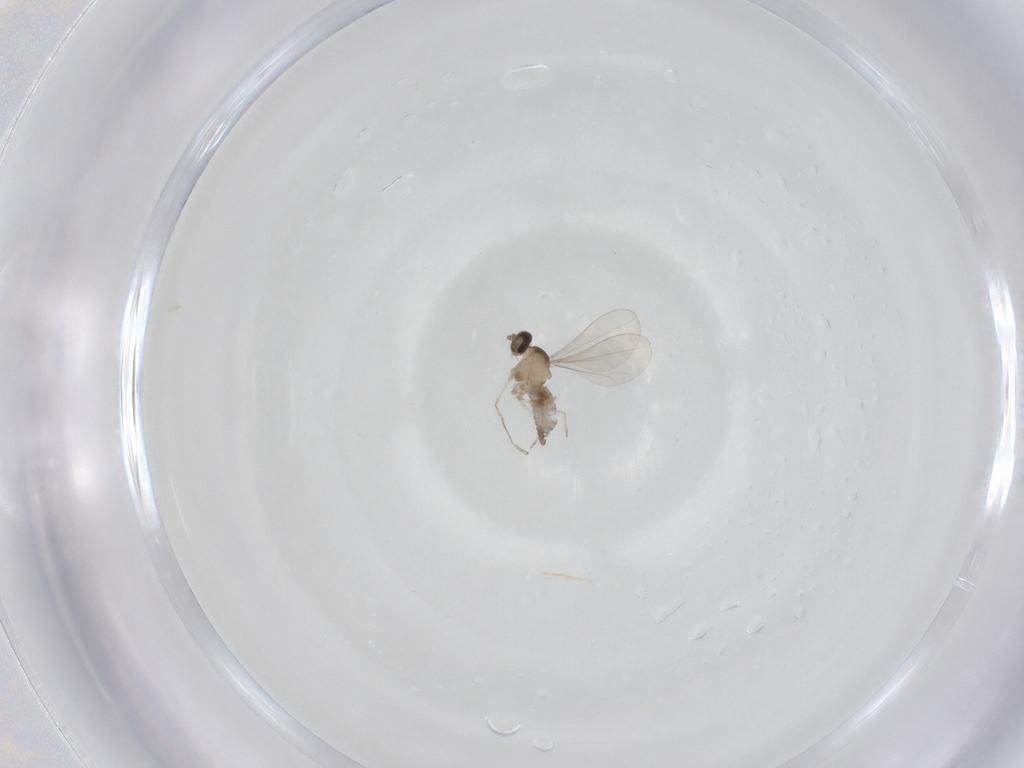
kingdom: Animalia
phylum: Arthropoda
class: Insecta
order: Diptera
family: Cecidomyiidae
